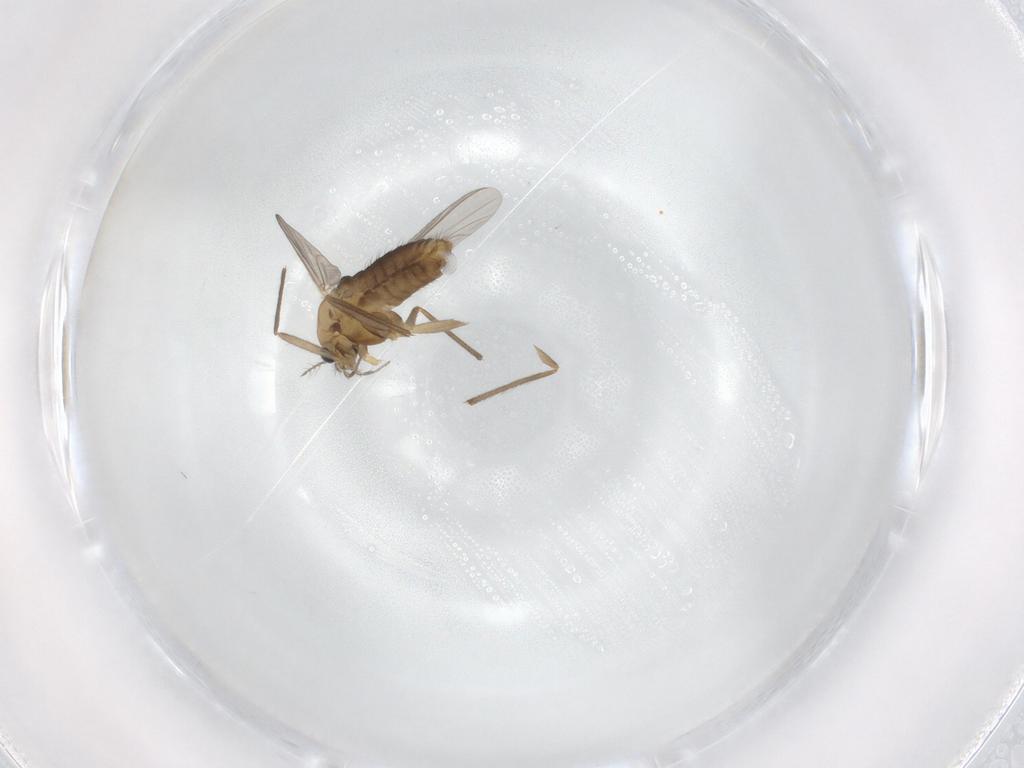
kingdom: Animalia
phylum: Arthropoda
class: Insecta
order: Diptera
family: Chironomidae
